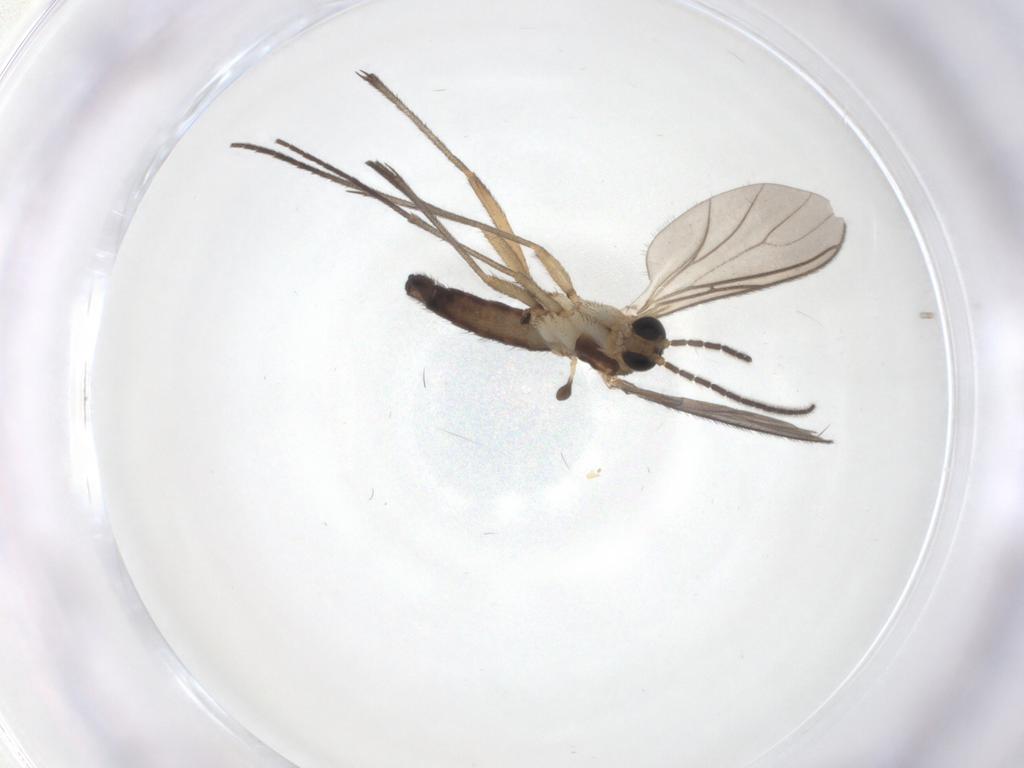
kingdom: Animalia
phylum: Arthropoda
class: Insecta
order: Diptera
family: Sciaridae
